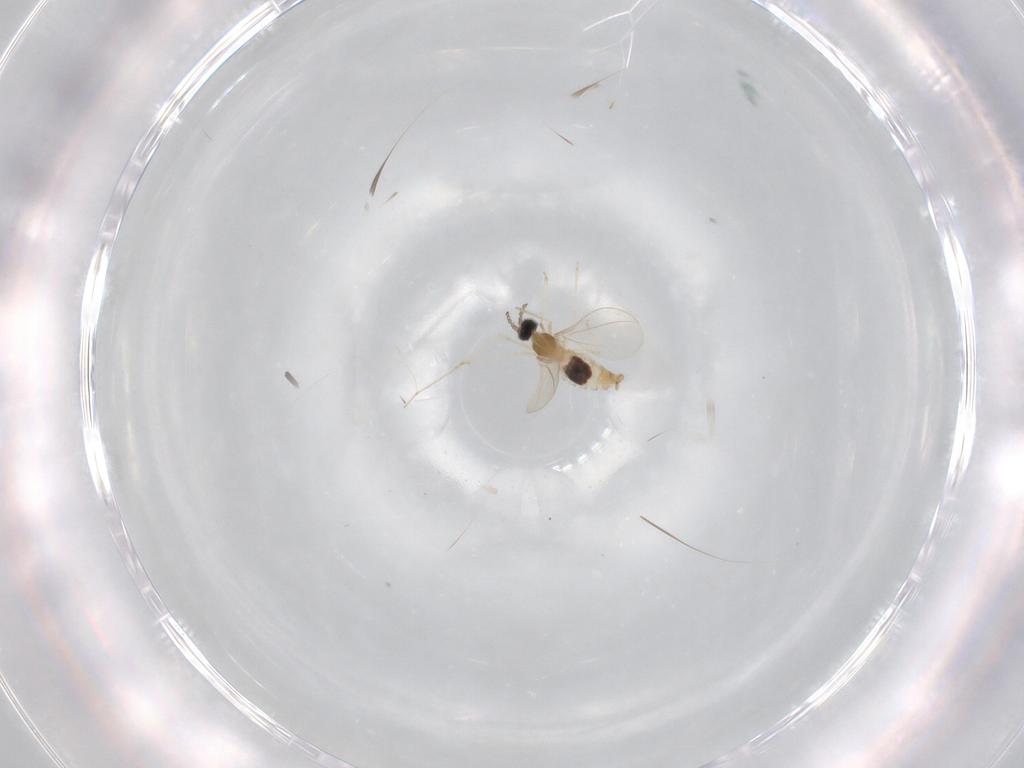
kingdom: Animalia
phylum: Arthropoda
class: Insecta
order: Diptera
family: Cecidomyiidae
